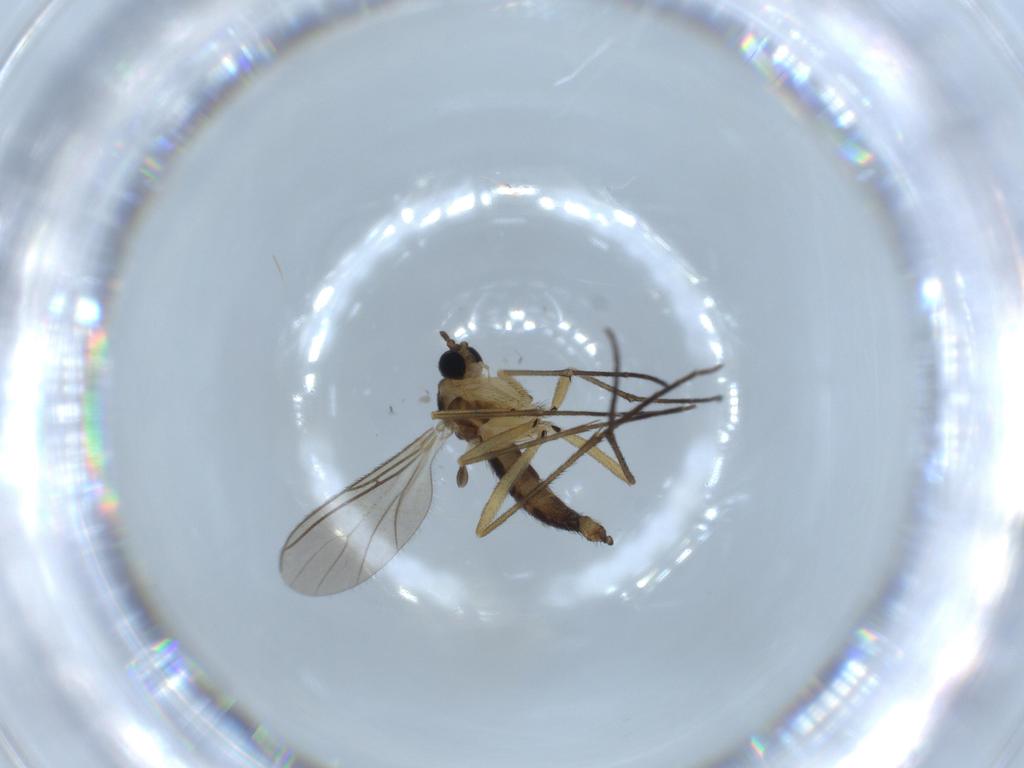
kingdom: Animalia
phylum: Arthropoda
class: Insecta
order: Diptera
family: Sciaridae
